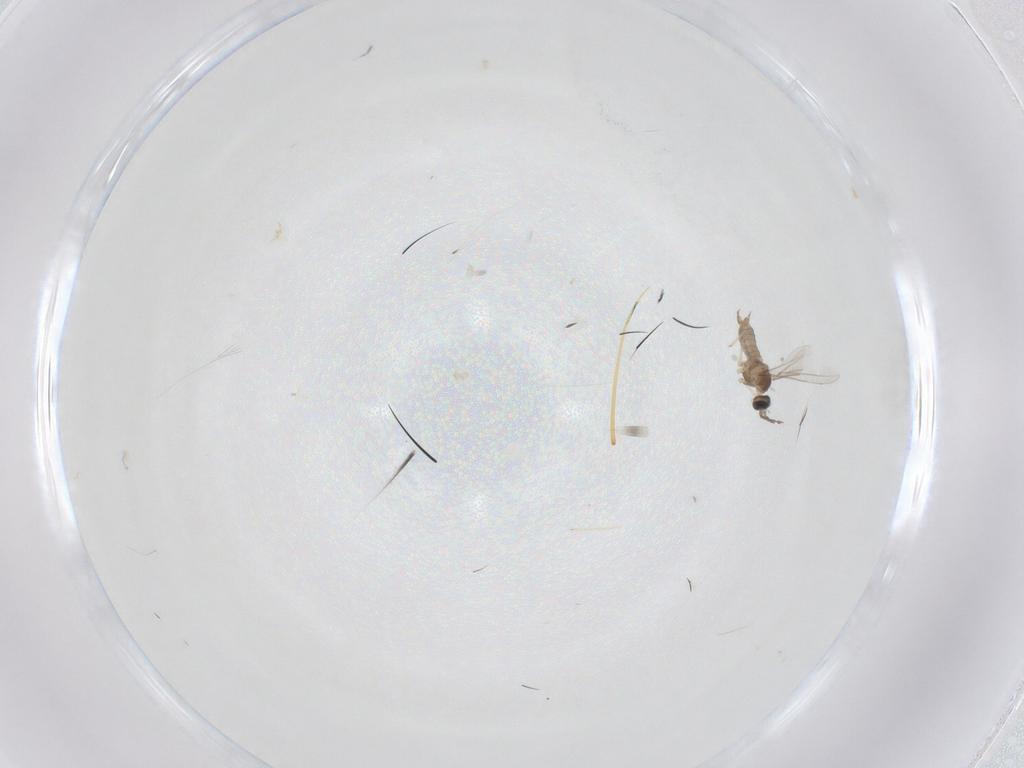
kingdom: Animalia
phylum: Arthropoda
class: Insecta
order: Diptera
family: Cecidomyiidae
